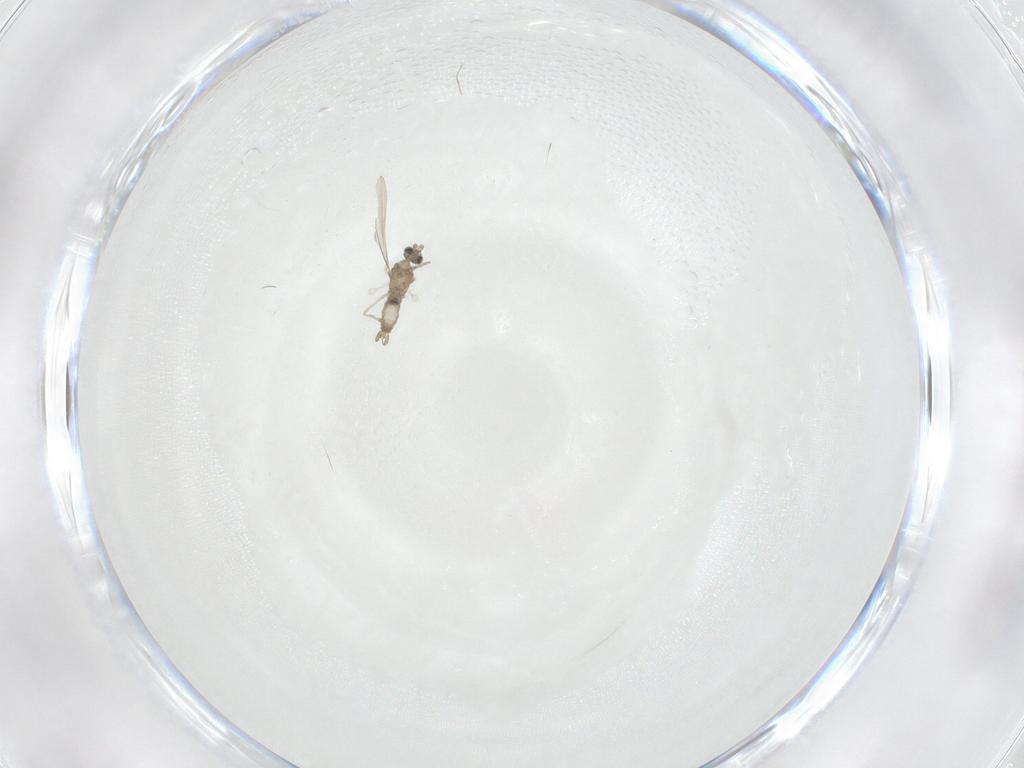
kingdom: Animalia
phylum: Arthropoda
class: Insecta
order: Diptera
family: Cecidomyiidae
